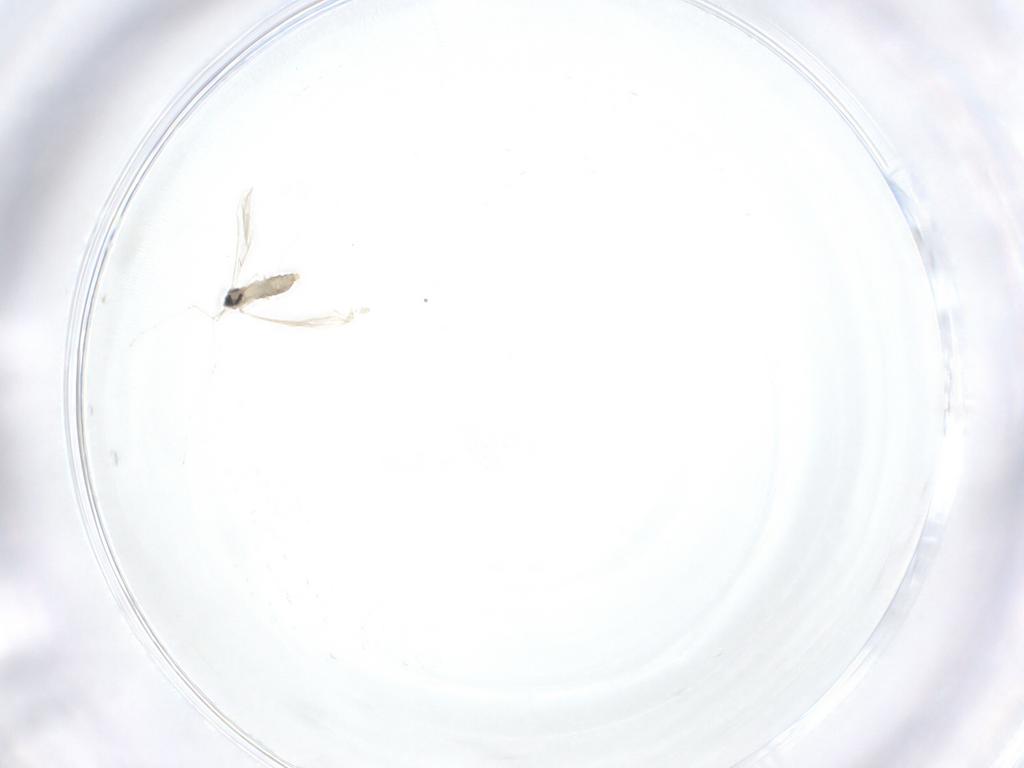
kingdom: Animalia
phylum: Arthropoda
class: Insecta
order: Diptera
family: Cecidomyiidae
